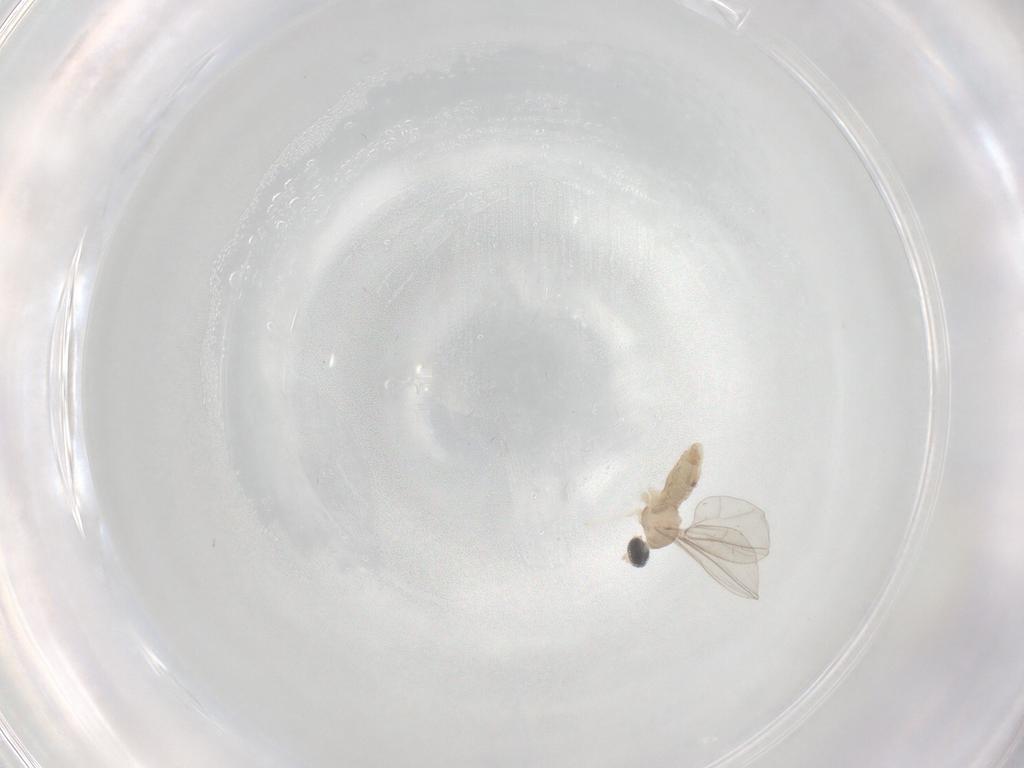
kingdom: Animalia
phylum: Arthropoda
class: Insecta
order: Diptera
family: Cecidomyiidae
